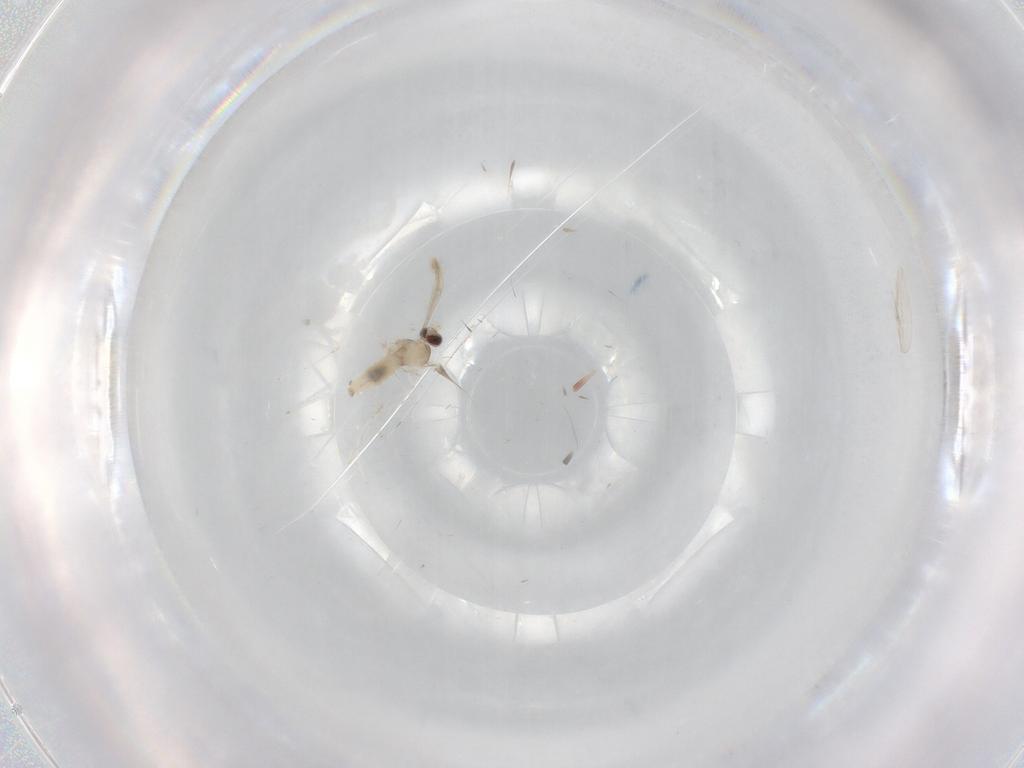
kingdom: Animalia
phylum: Arthropoda
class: Insecta
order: Diptera
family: Cecidomyiidae
